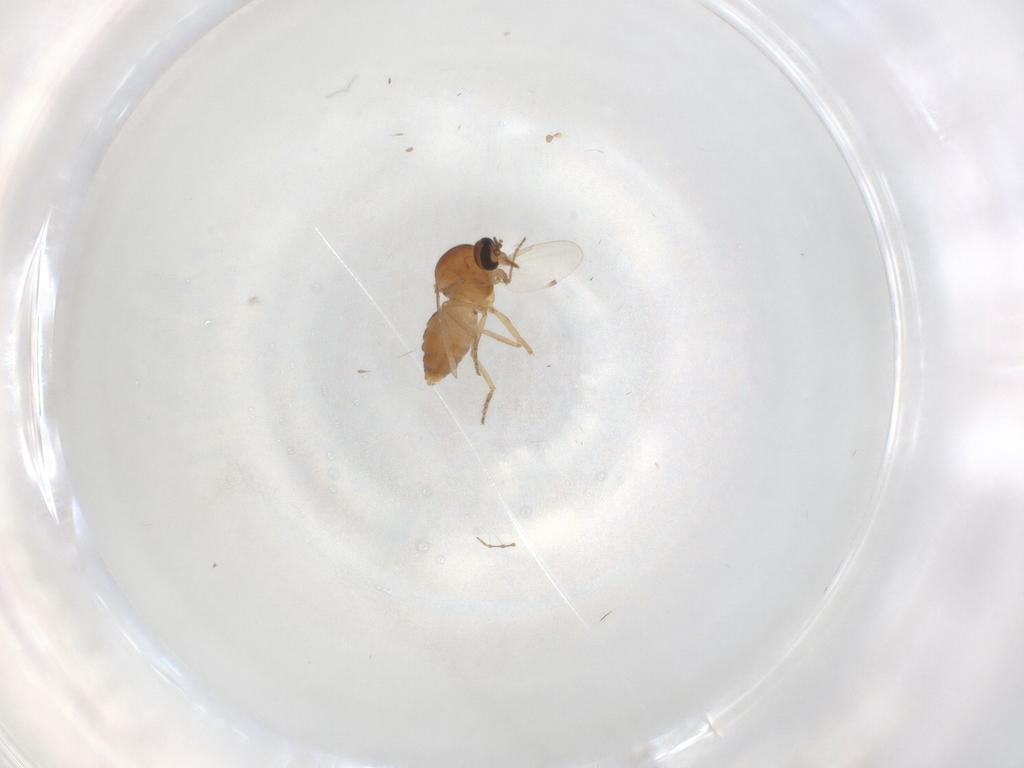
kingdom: Animalia
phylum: Arthropoda
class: Insecta
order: Diptera
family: Ceratopogonidae
